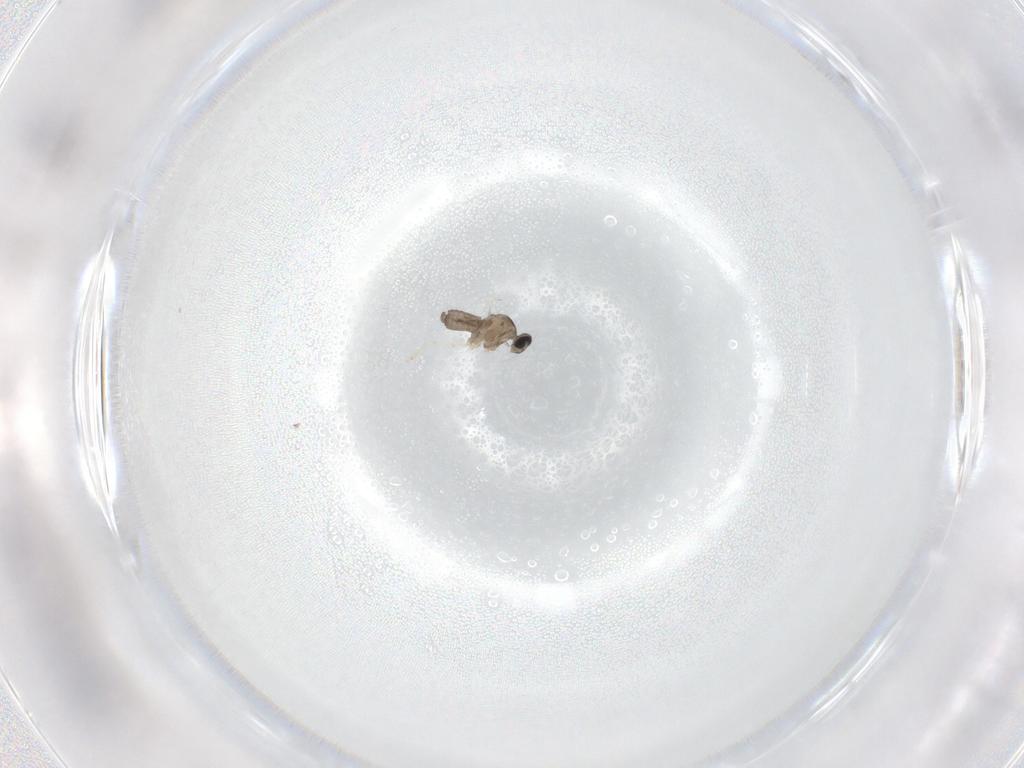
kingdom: Animalia
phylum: Arthropoda
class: Insecta
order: Diptera
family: Cecidomyiidae
